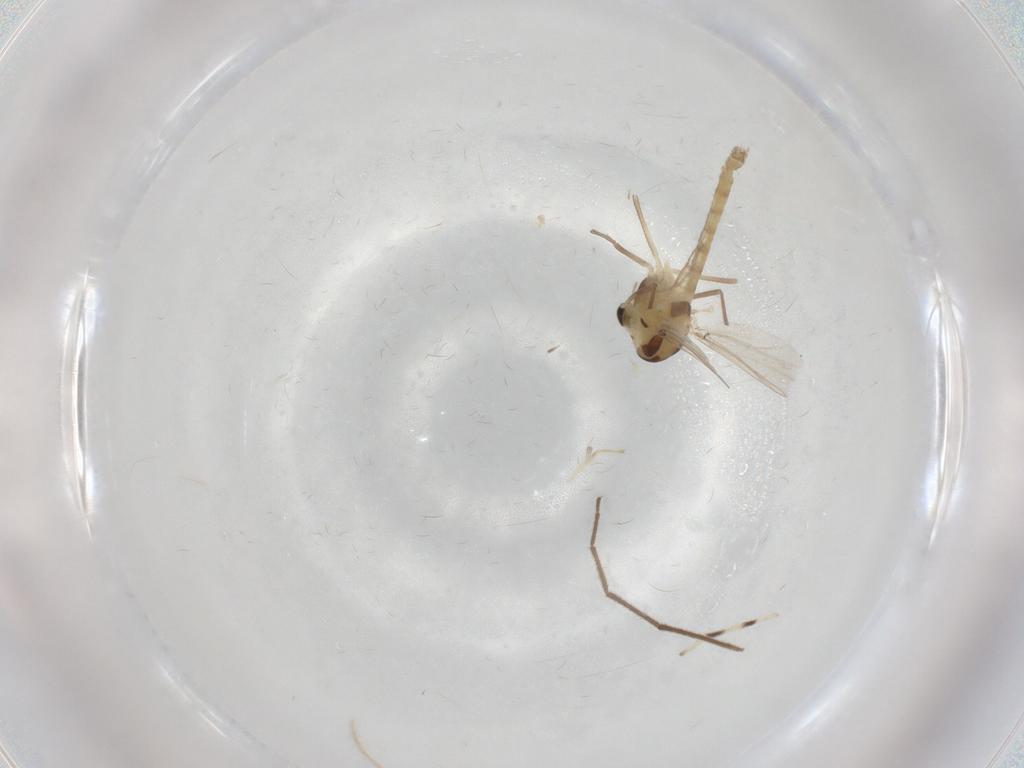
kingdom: Animalia
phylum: Arthropoda
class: Insecta
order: Diptera
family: Chironomidae
